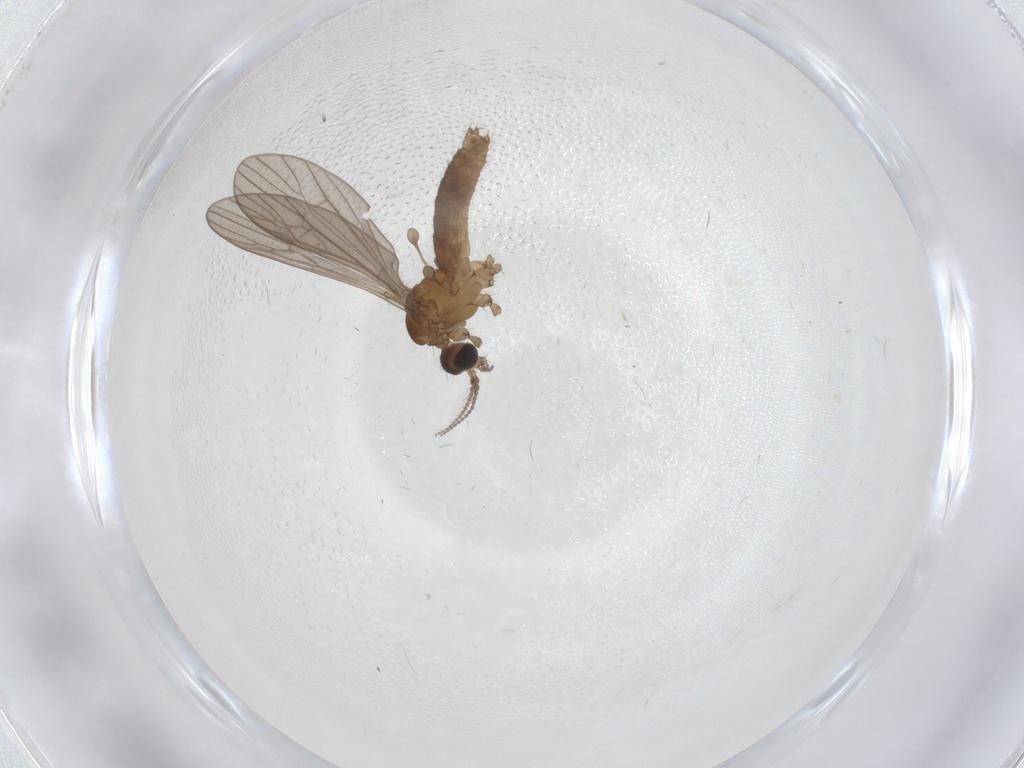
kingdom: Animalia
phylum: Arthropoda
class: Insecta
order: Diptera
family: Limoniidae
